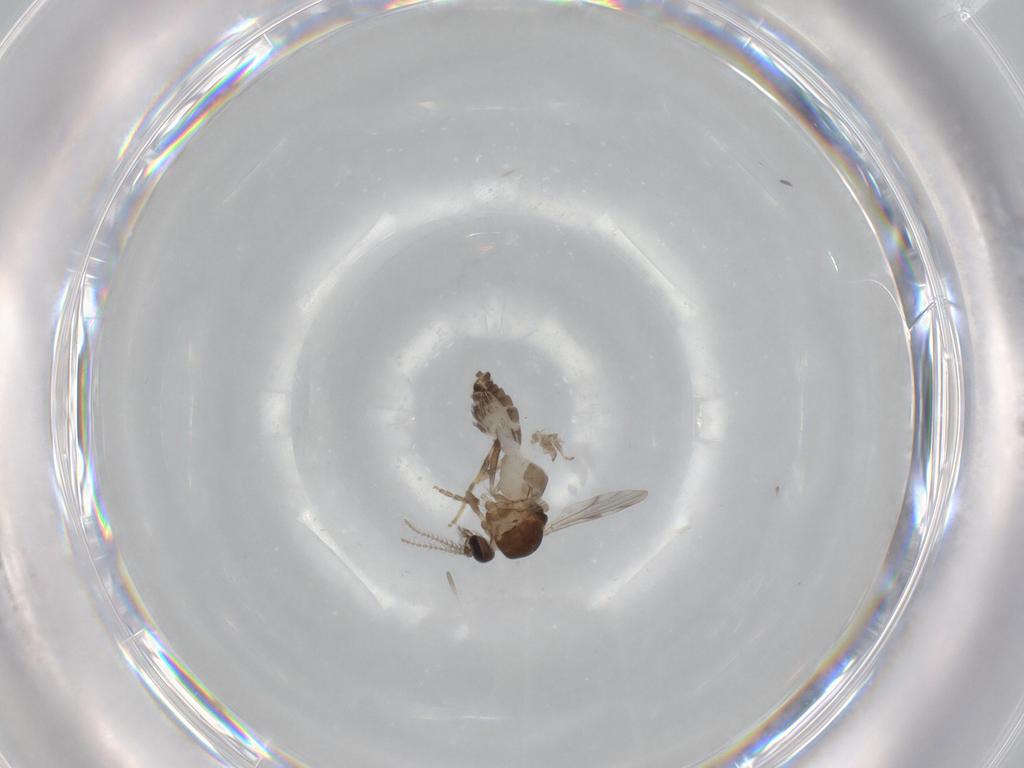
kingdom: Animalia
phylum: Arthropoda
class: Insecta
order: Diptera
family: Ceratopogonidae
